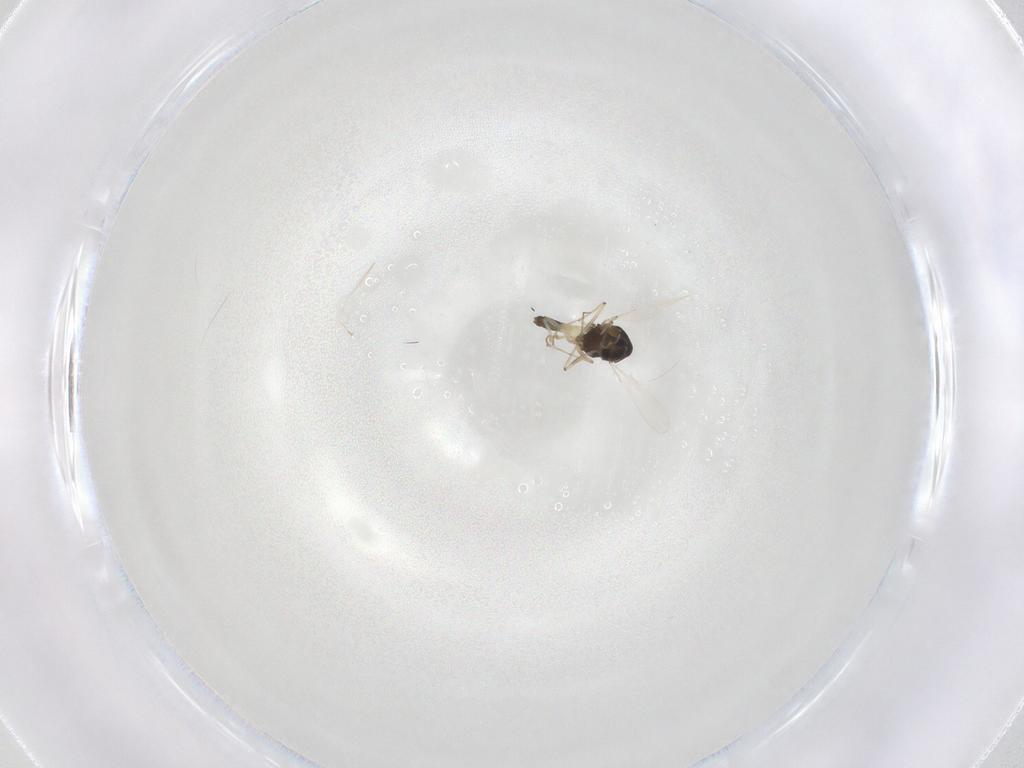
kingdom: Animalia
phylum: Arthropoda
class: Insecta
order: Diptera
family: Chironomidae
